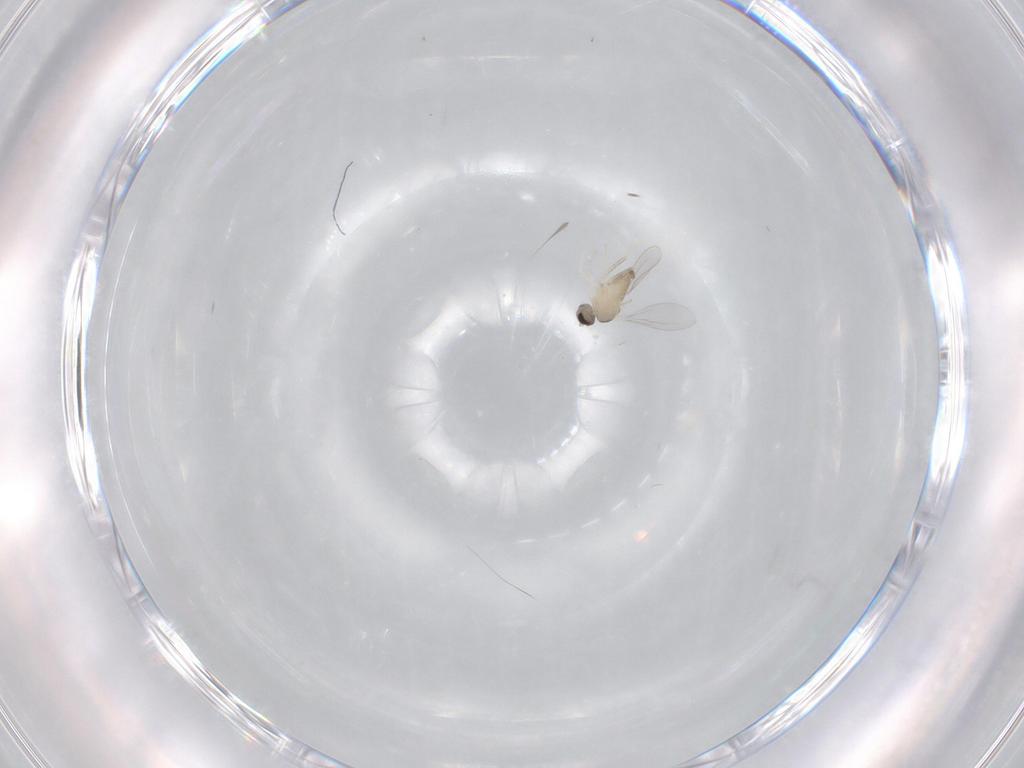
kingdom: Animalia
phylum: Arthropoda
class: Insecta
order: Diptera
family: Cecidomyiidae
